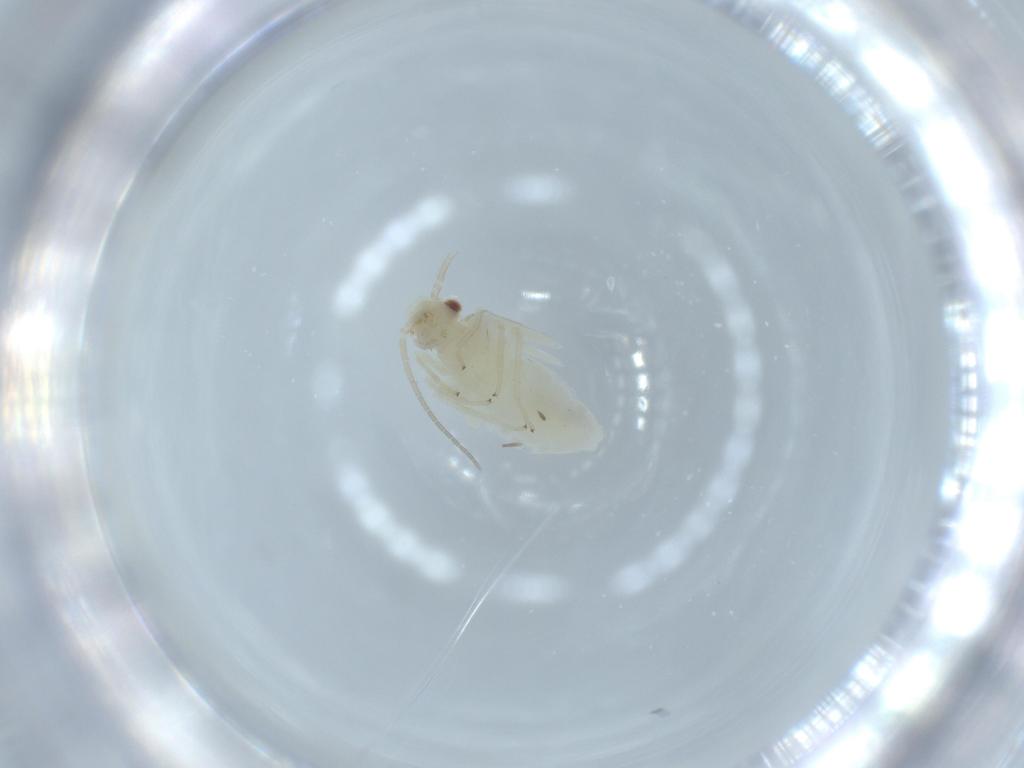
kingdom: Animalia
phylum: Arthropoda
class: Insecta
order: Psocodea
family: Caeciliusidae
